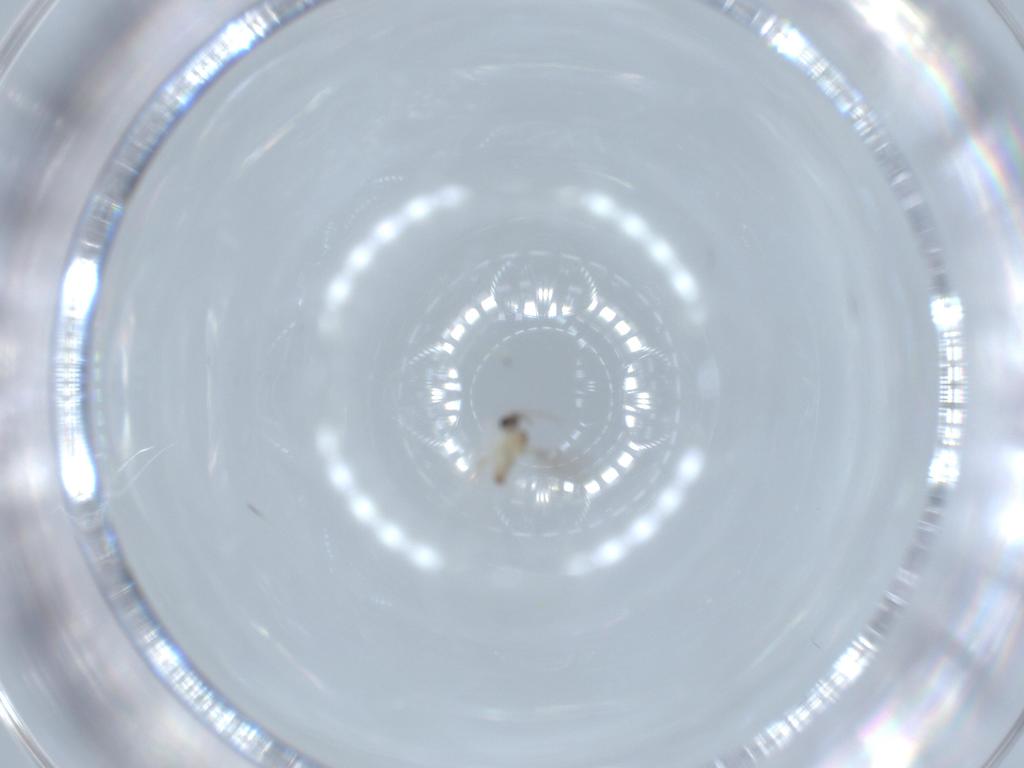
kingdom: Animalia
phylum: Arthropoda
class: Insecta
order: Diptera
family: Cecidomyiidae
